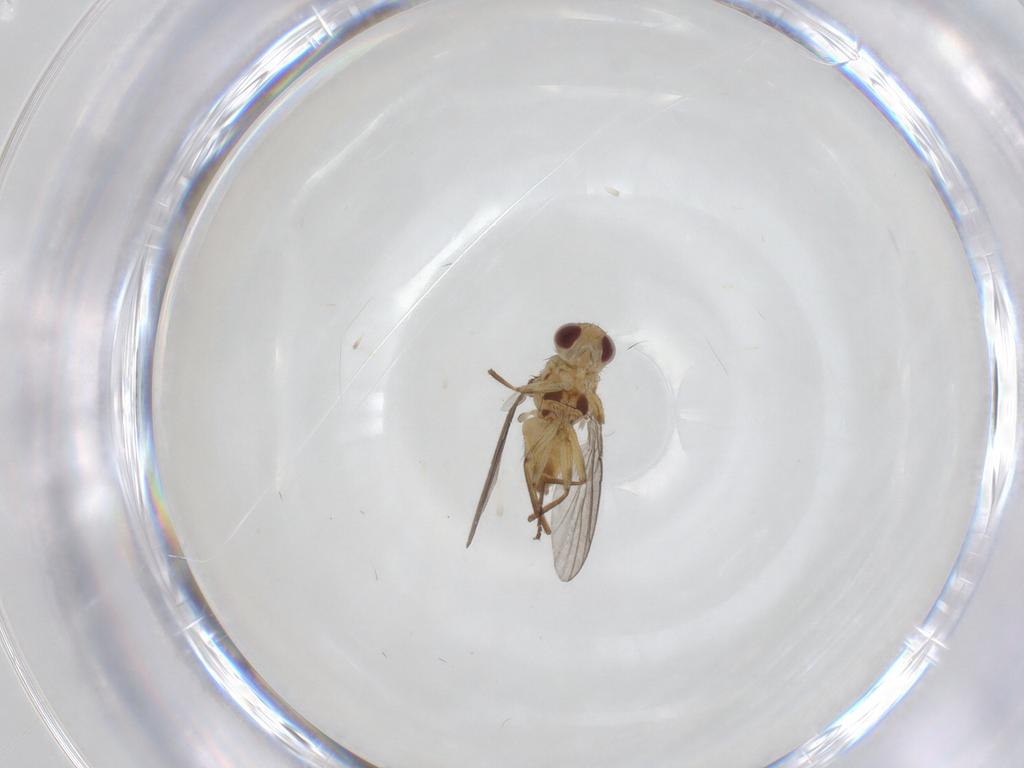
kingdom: Animalia
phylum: Arthropoda
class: Insecta
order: Diptera
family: Agromyzidae
